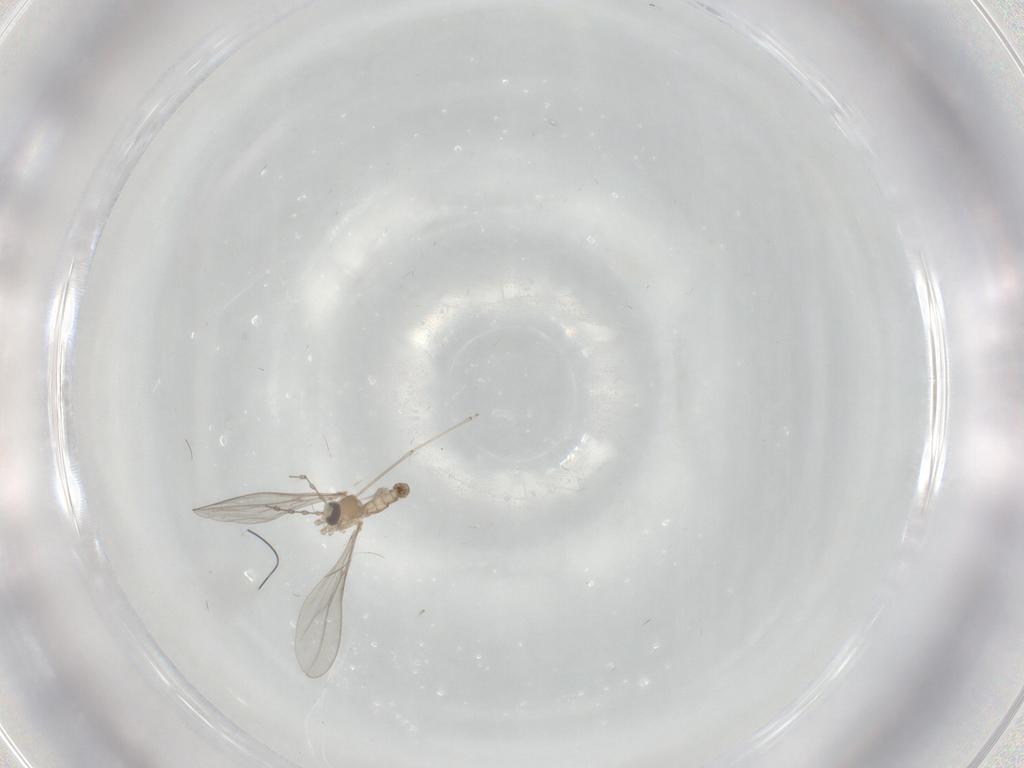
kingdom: Animalia
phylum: Arthropoda
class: Insecta
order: Diptera
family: Cecidomyiidae
